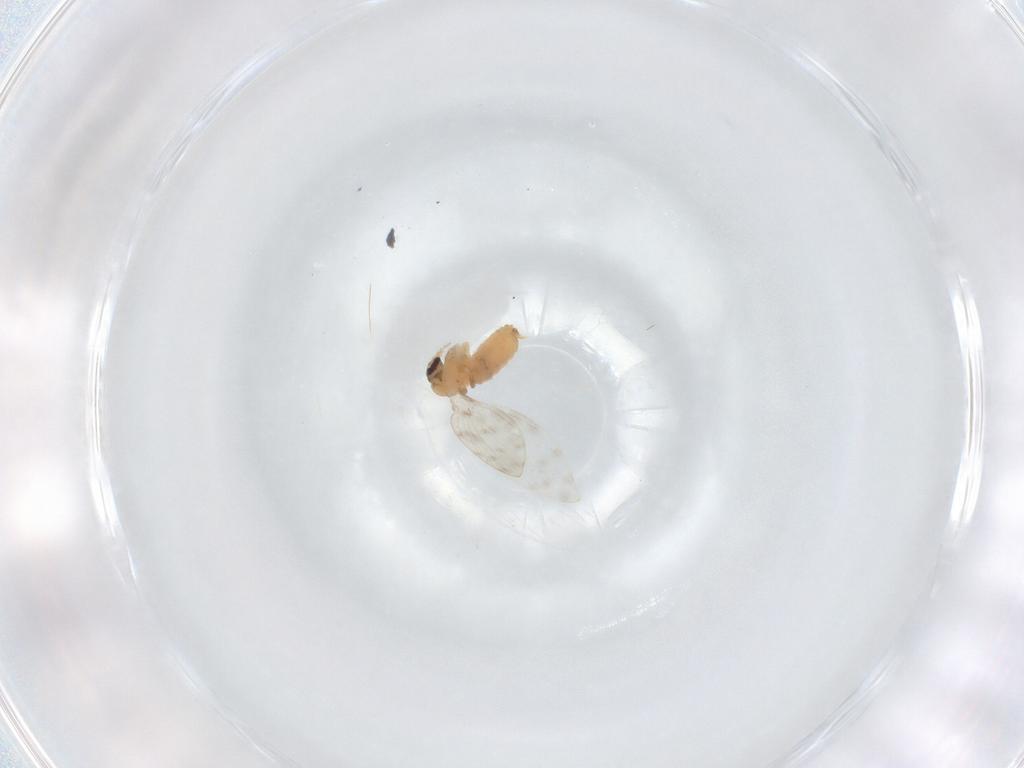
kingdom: Animalia
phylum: Arthropoda
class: Insecta
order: Diptera
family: Psychodidae
